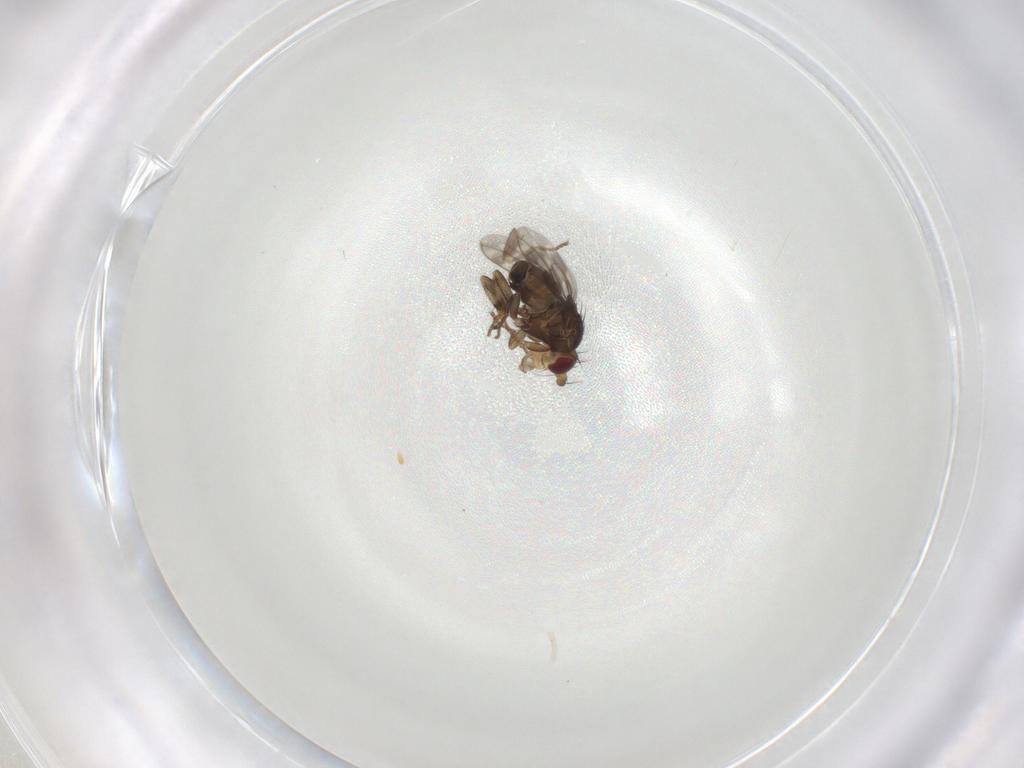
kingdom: Animalia
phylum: Arthropoda
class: Insecta
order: Diptera
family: Sphaeroceridae
